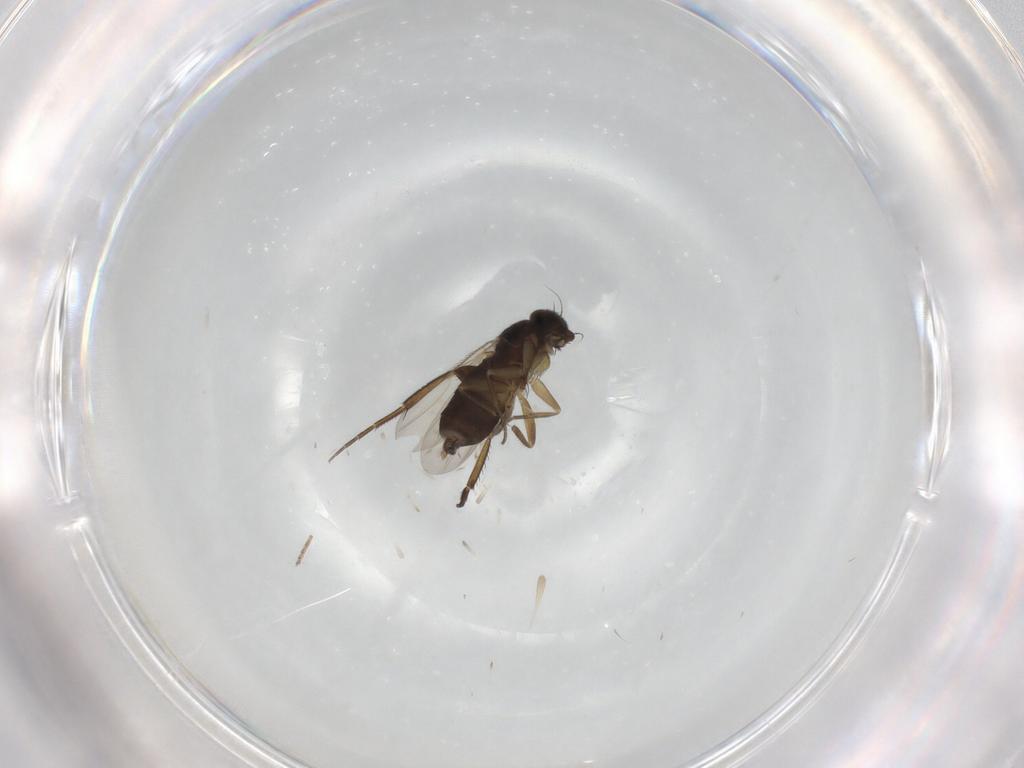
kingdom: Animalia
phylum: Arthropoda
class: Insecta
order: Diptera
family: Phoridae
